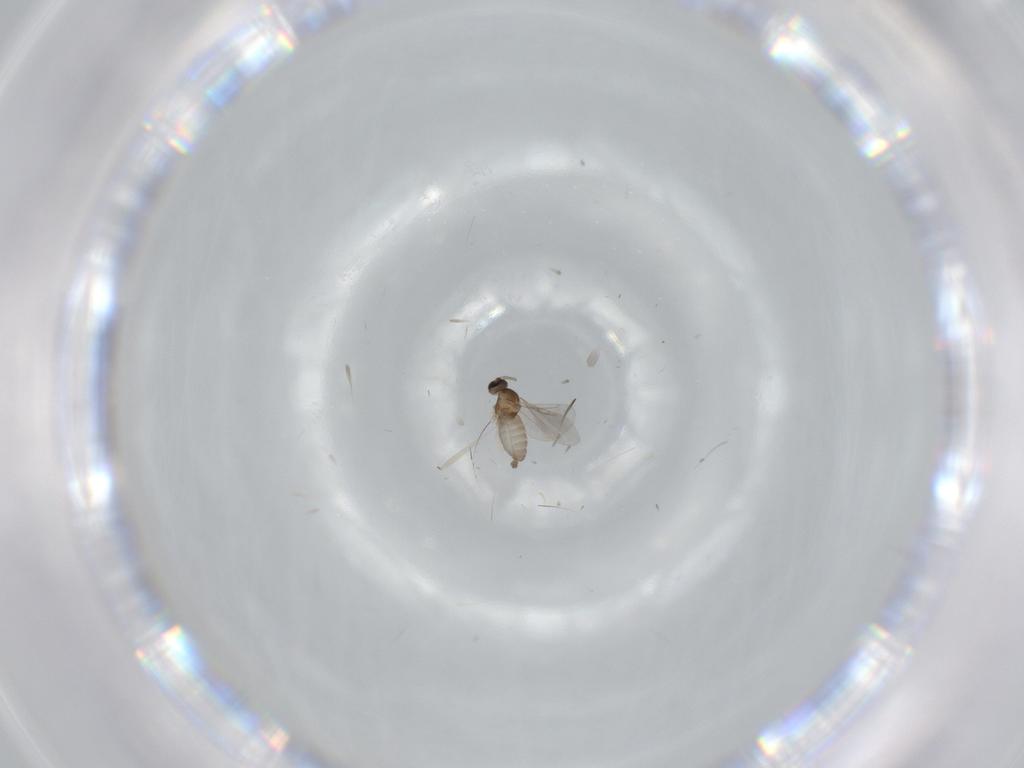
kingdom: Animalia
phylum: Arthropoda
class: Insecta
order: Diptera
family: Cecidomyiidae
